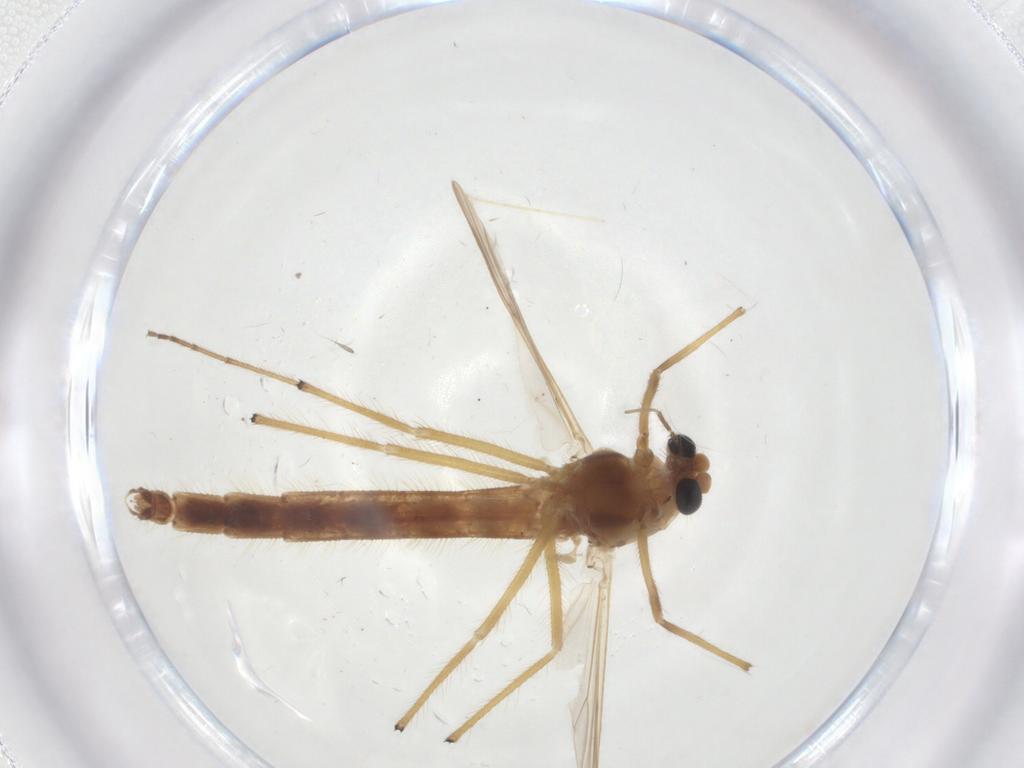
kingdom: Animalia
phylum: Arthropoda
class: Insecta
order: Diptera
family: Chironomidae
